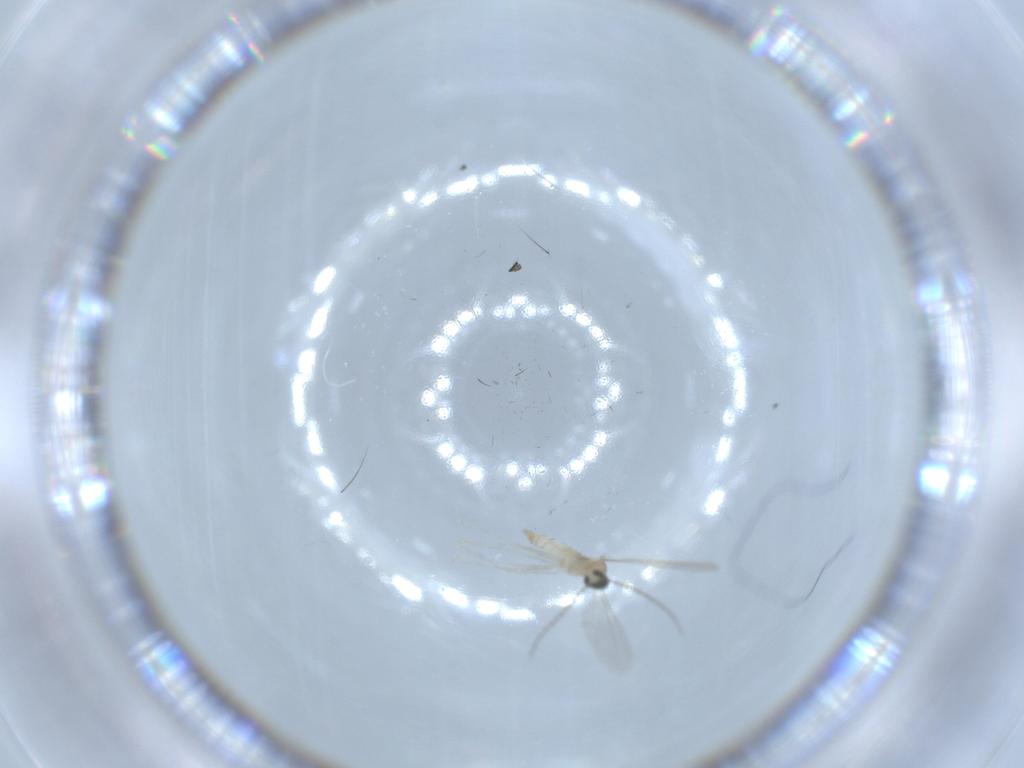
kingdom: Animalia
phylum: Arthropoda
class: Insecta
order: Diptera
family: Cecidomyiidae
